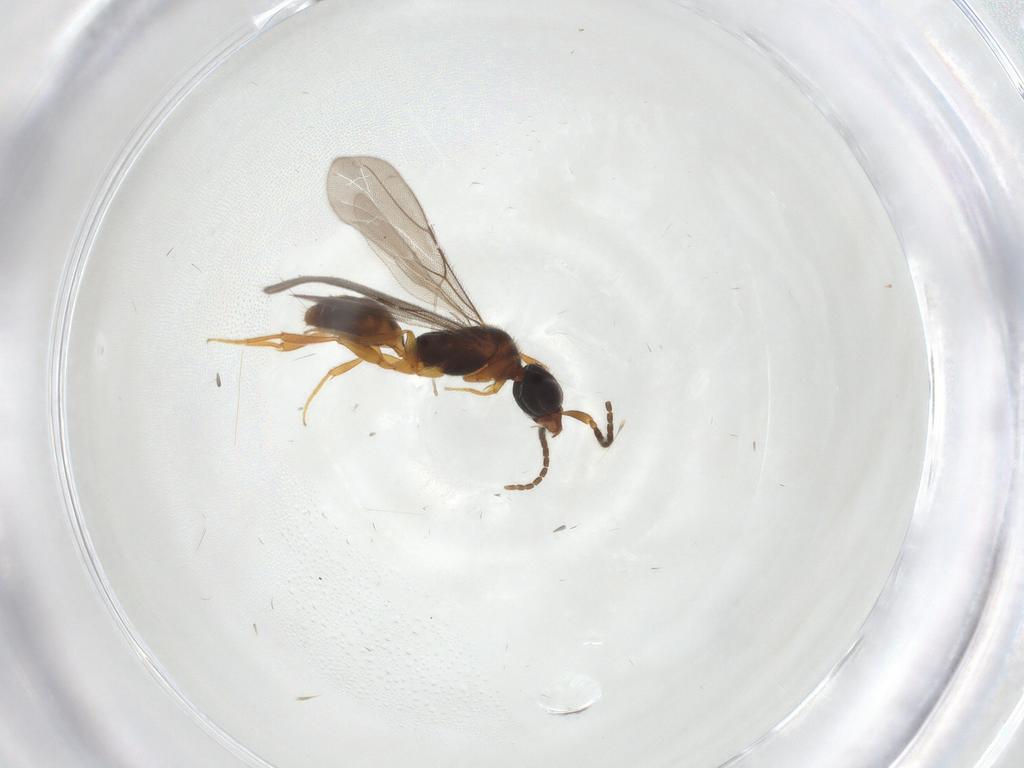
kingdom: Animalia
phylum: Arthropoda
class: Insecta
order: Hymenoptera
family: Bethylidae
